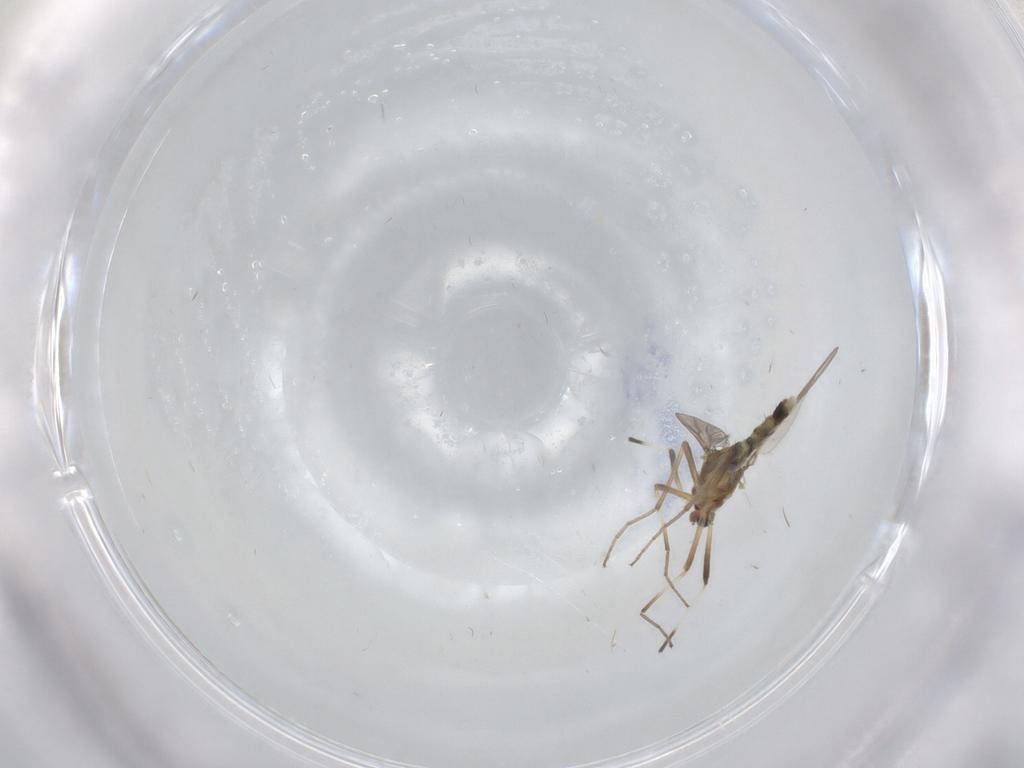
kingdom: Animalia
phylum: Arthropoda
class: Insecta
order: Diptera
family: Chironomidae
